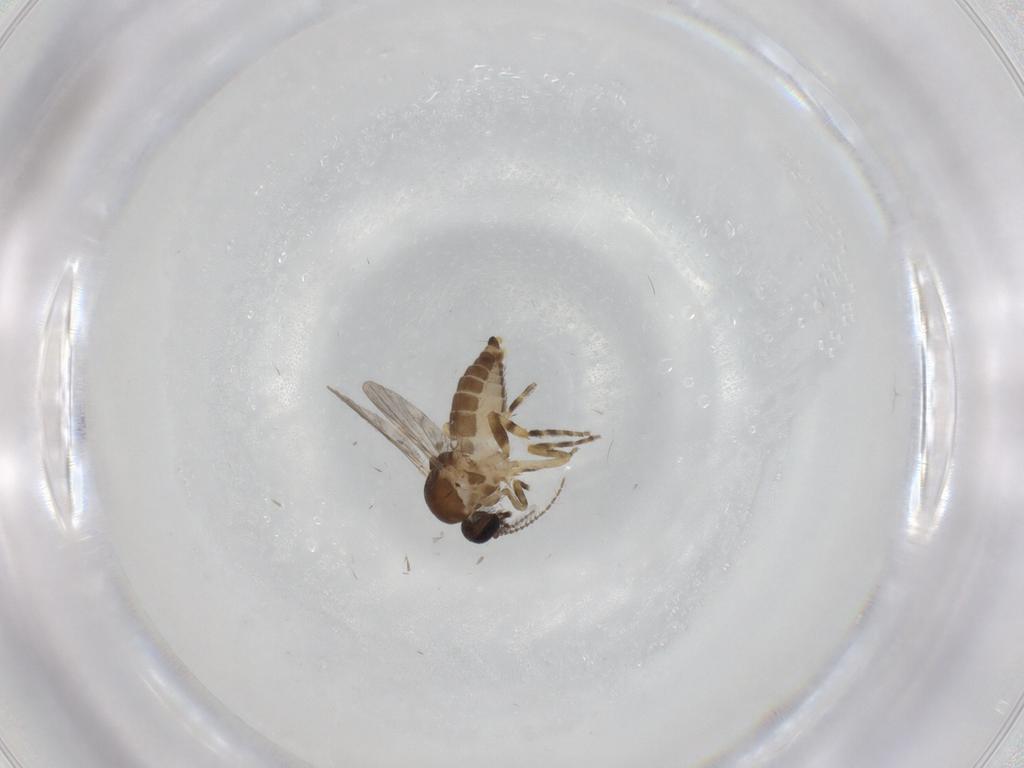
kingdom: Animalia
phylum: Arthropoda
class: Insecta
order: Diptera
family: Ceratopogonidae
